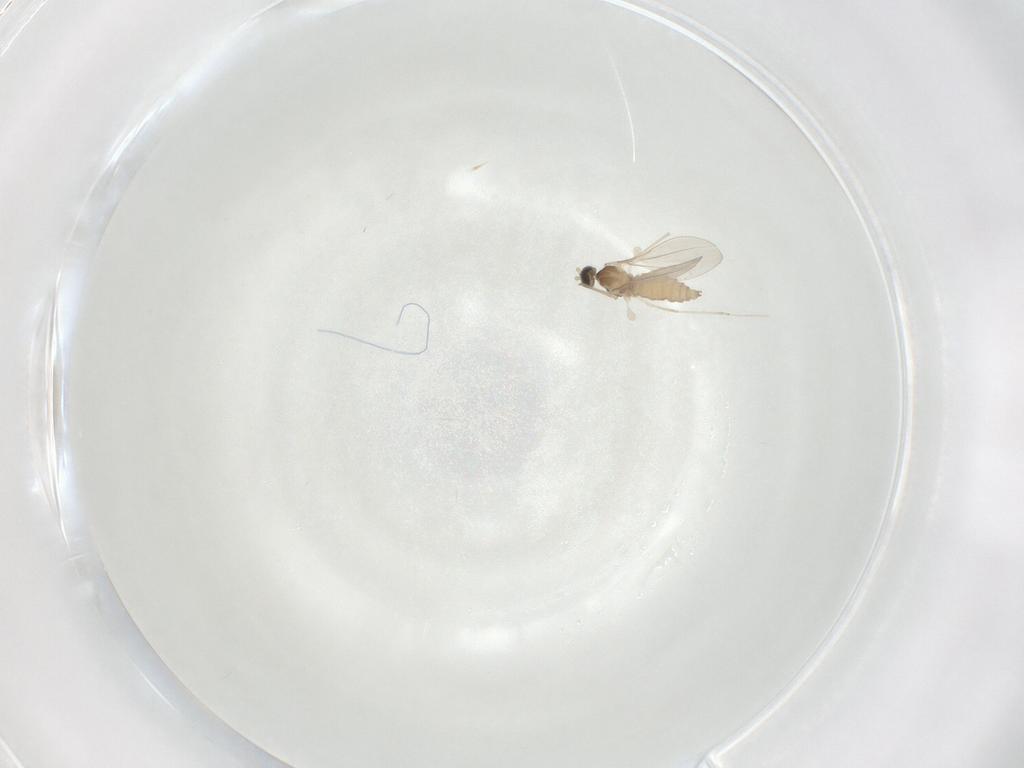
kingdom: Animalia
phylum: Arthropoda
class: Insecta
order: Diptera
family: Cecidomyiidae
